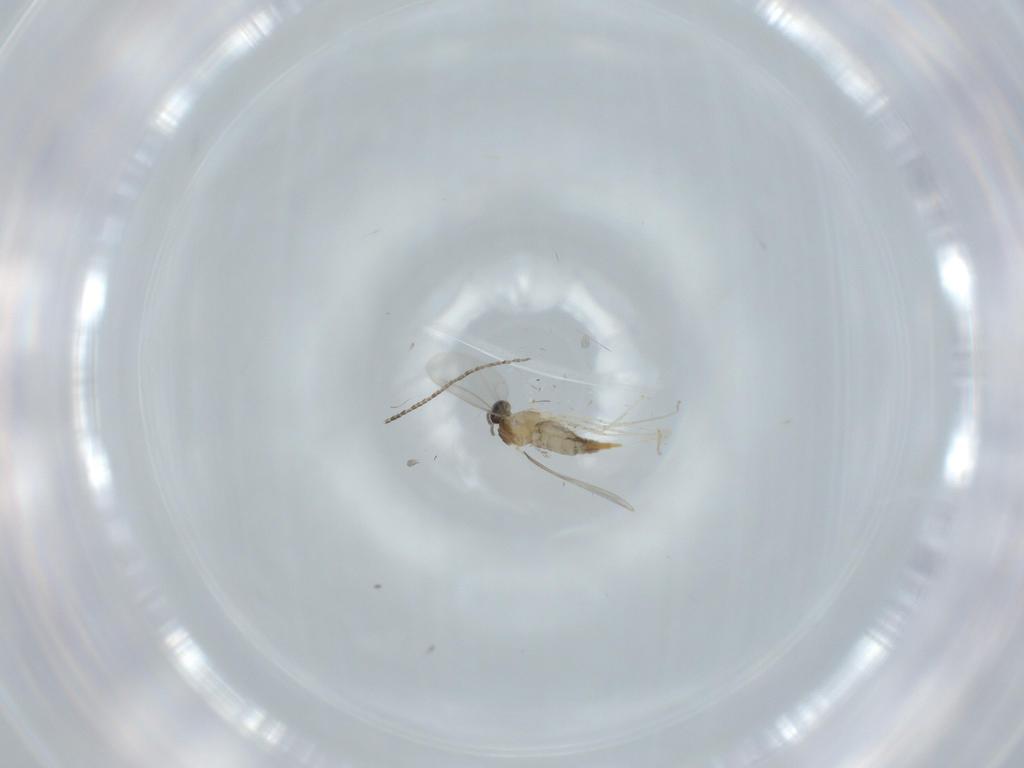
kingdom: Animalia
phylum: Arthropoda
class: Insecta
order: Diptera
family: Cecidomyiidae
